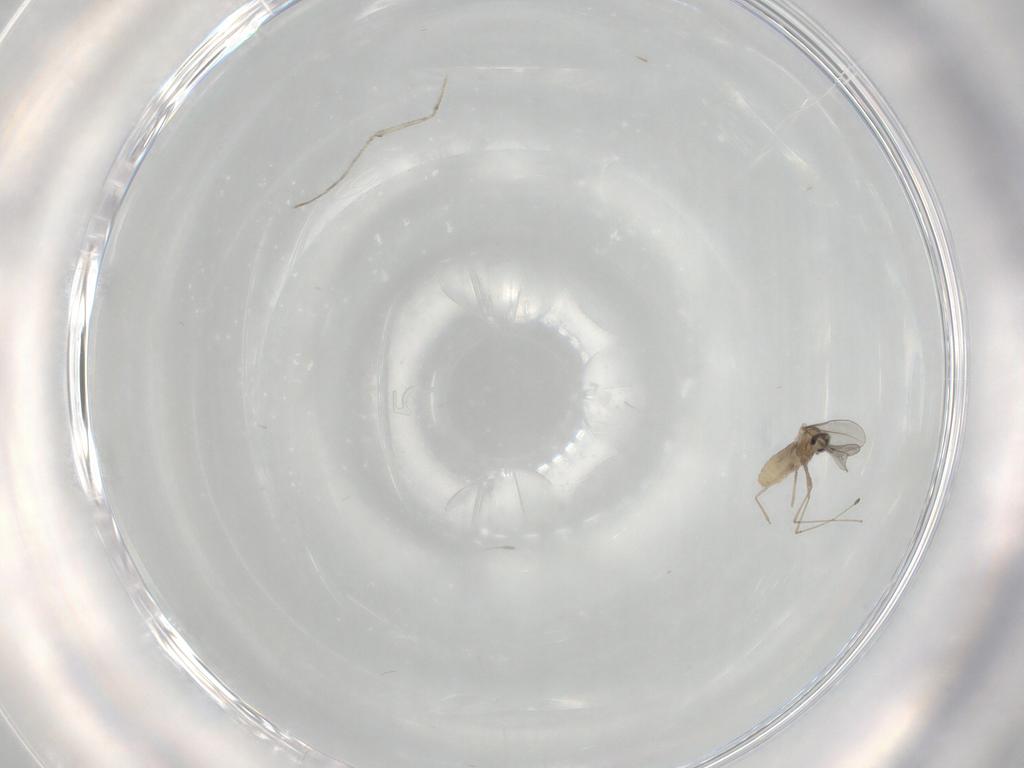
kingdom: Animalia
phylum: Arthropoda
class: Insecta
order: Diptera
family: Cecidomyiidae
